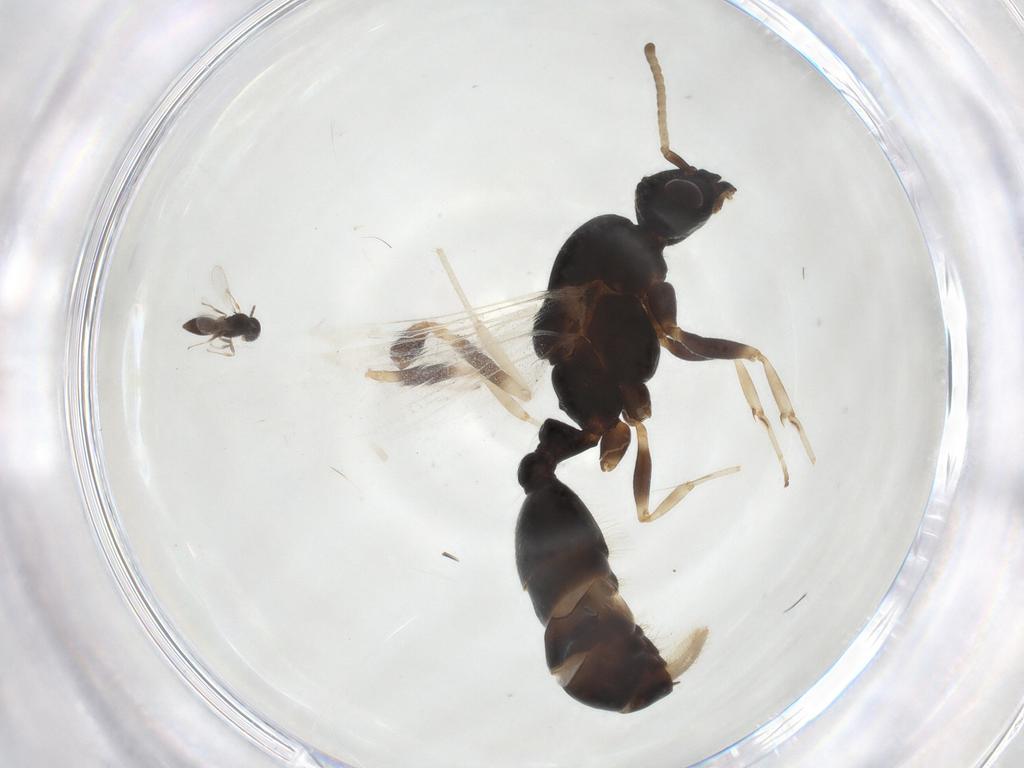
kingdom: Animalia
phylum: Arthropoda
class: Insecta
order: Hymenoptera
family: Formicidae
